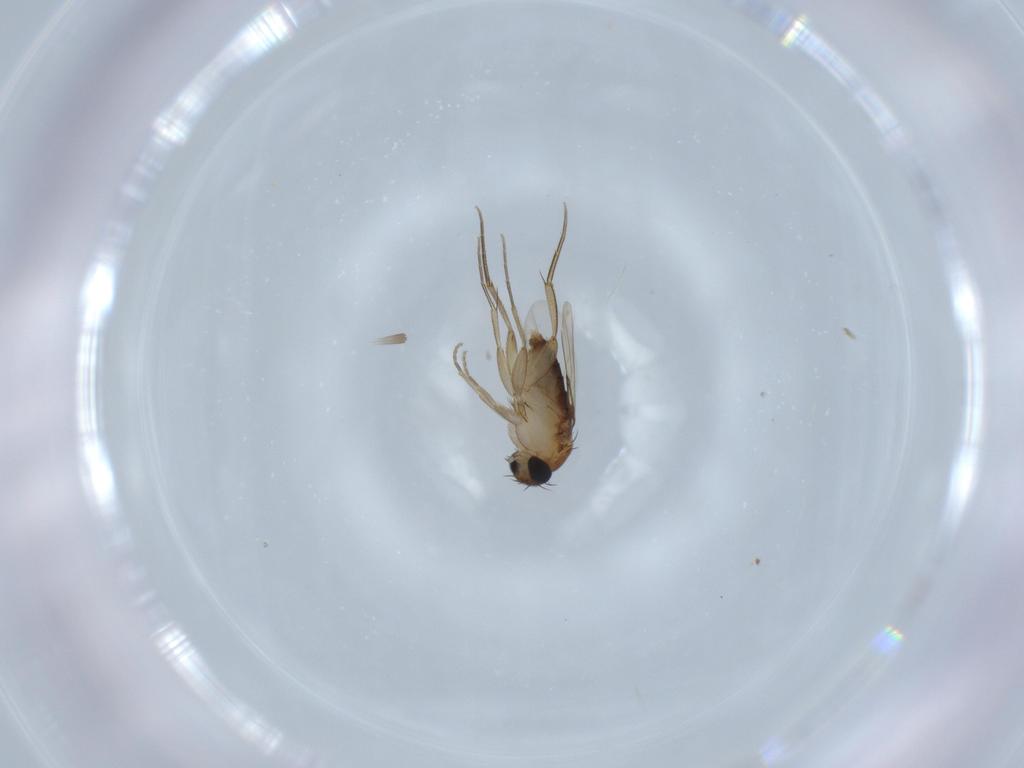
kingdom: Animalia
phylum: Arthropoda
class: Insecta
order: Diptera
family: Phoridae
